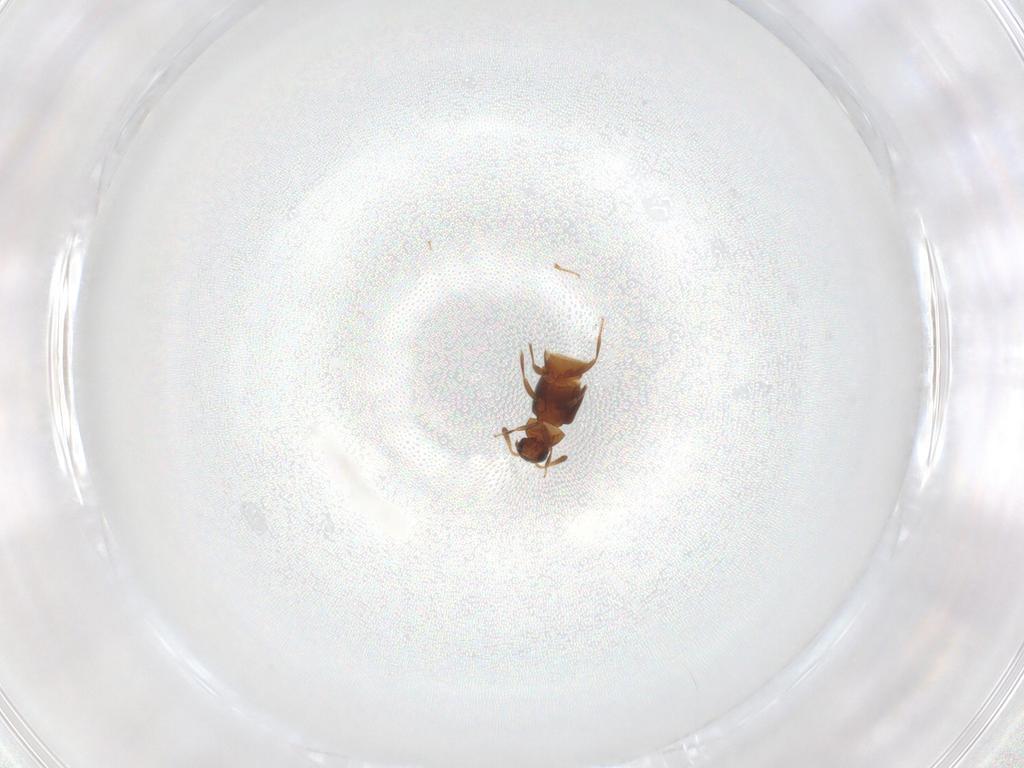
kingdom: Animalia
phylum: Arthropoda
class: Insecta
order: Coleoptera
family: Staphylinidae
